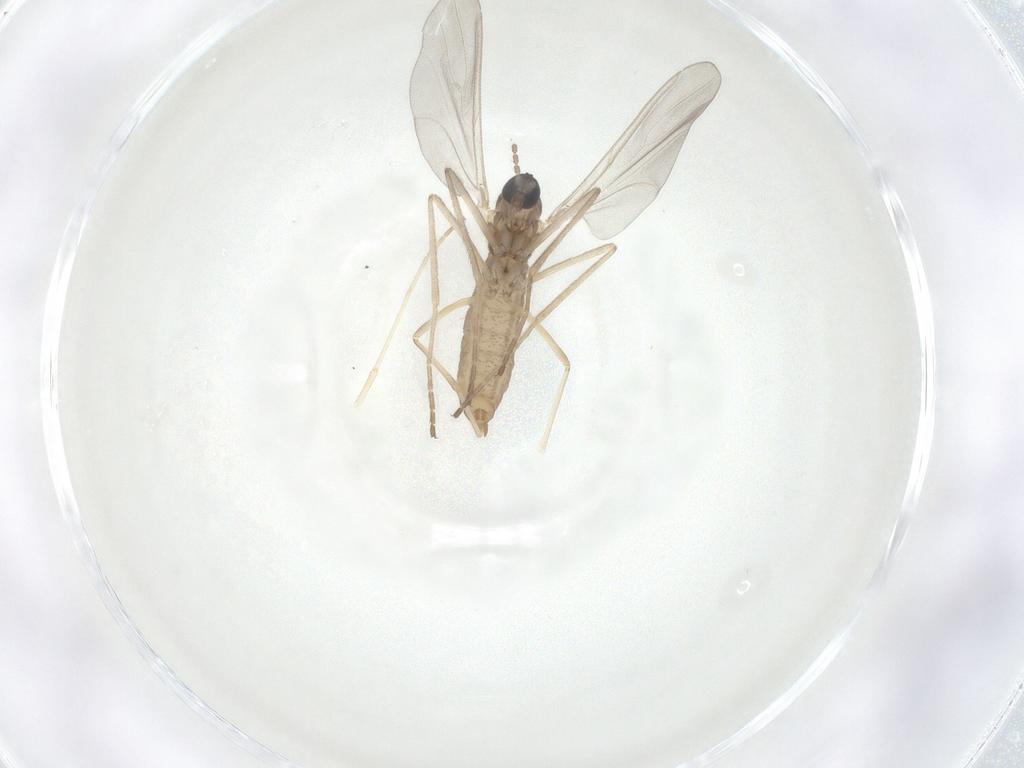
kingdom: Animalia
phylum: Arthropoda
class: Insecta
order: Diptera
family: Cecidomyiidae
